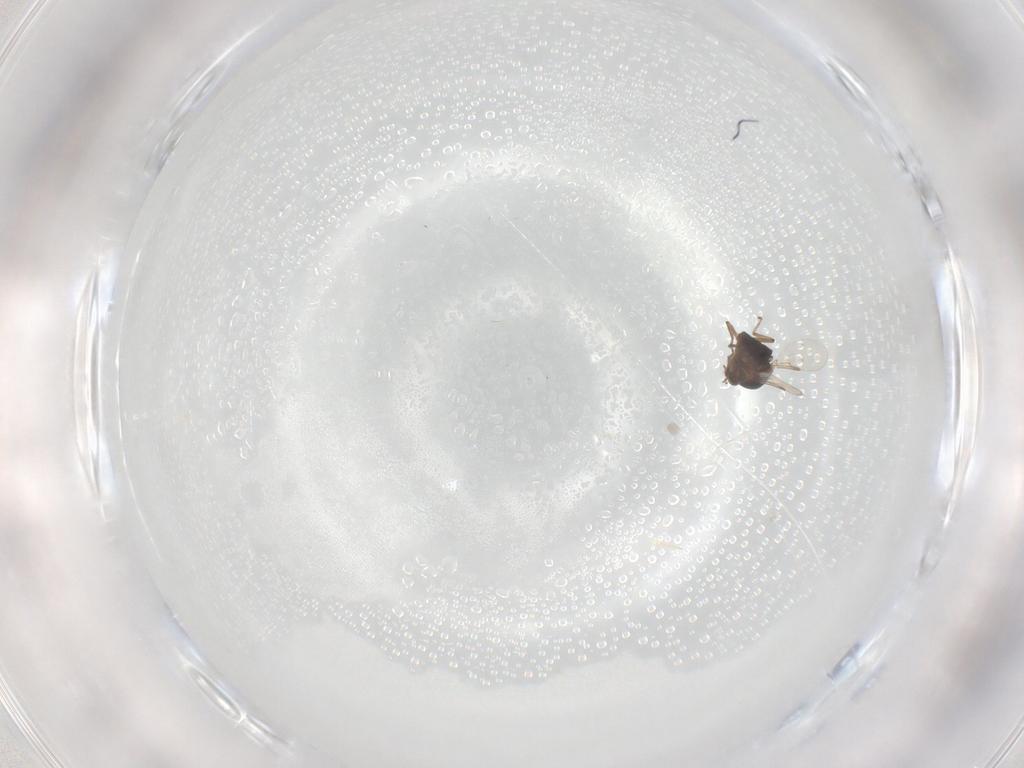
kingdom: Animalia
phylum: Arthropoda
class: Insecta
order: Diptera
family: Ceratopogonidae
